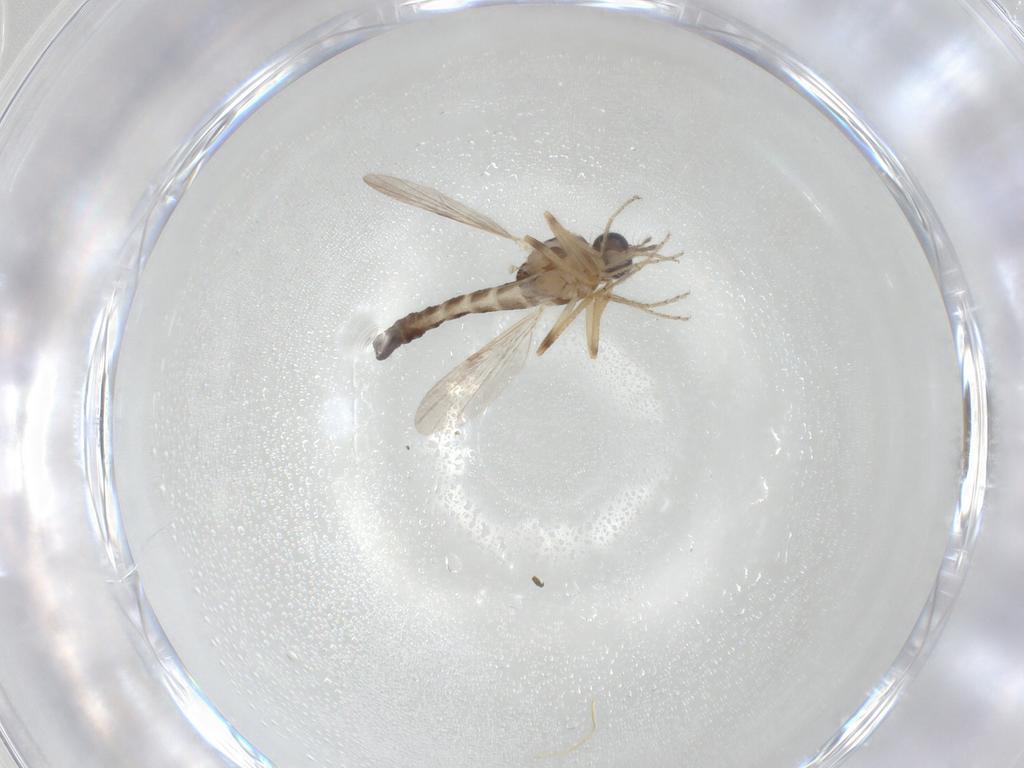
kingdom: Animalia
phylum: Arthropoda
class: Insecta
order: Diptera
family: Ceratopogonidae
